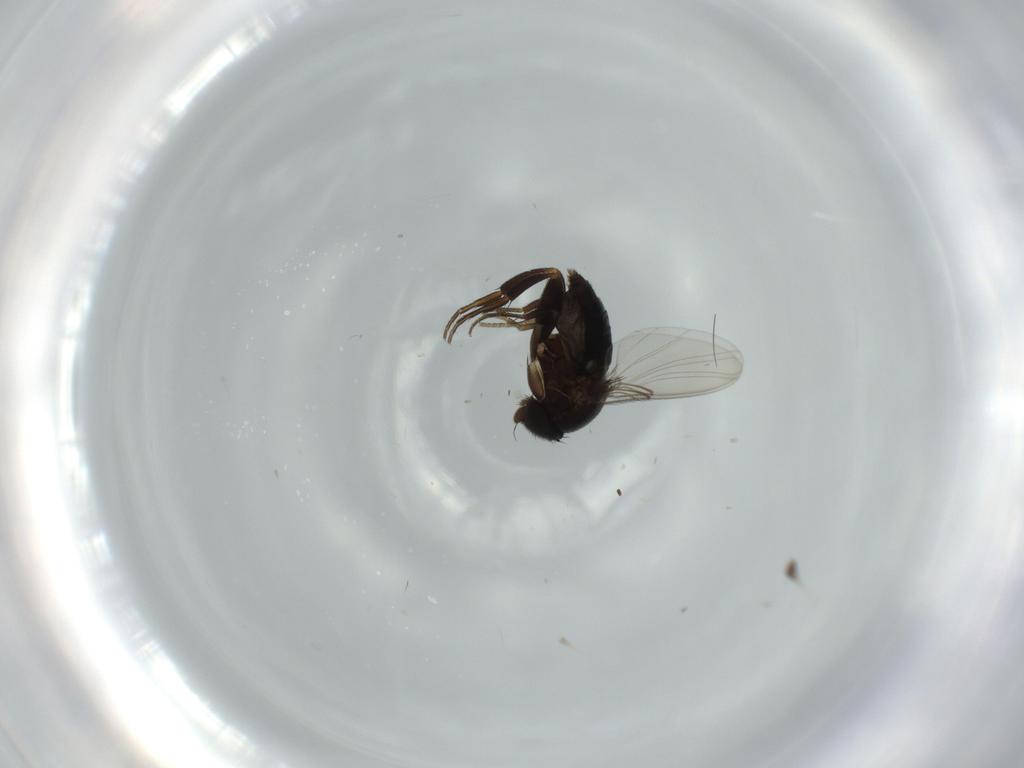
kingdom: Animalia
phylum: Arthropoda
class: Insecta
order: Diptera
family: Phoridae
